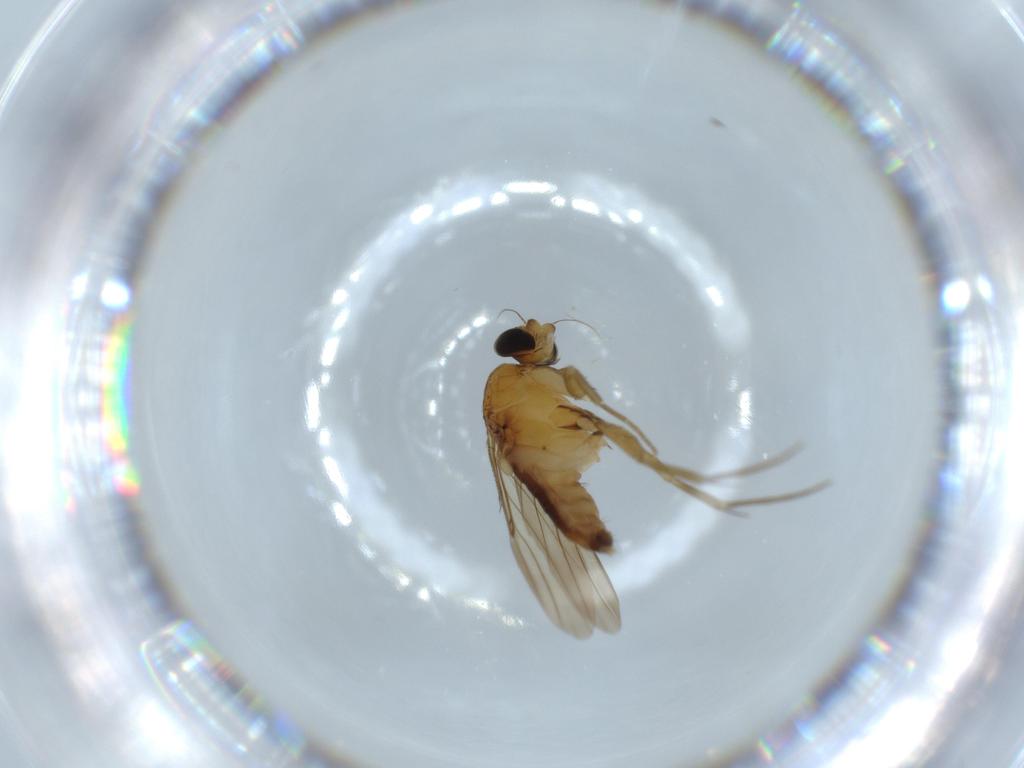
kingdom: Animalia
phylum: Arthropoda
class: Insecta
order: Diptera
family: Phoridae
